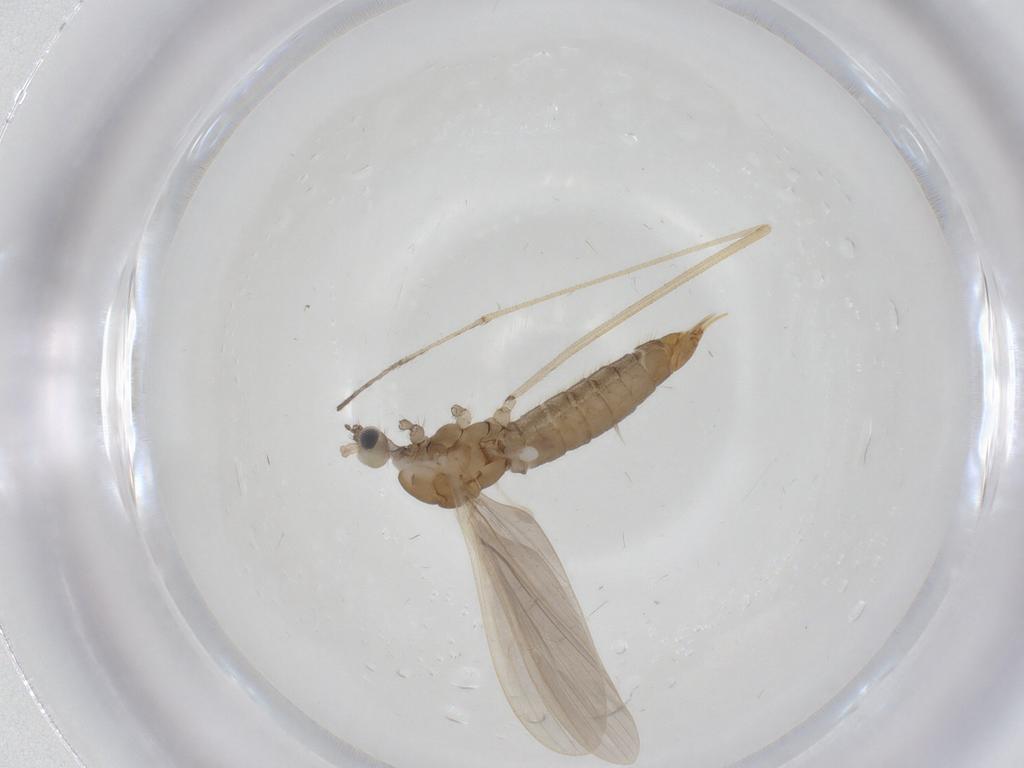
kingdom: Animalia
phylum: Arthropoda
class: Insecta
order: Diptera
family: Limoniidae
